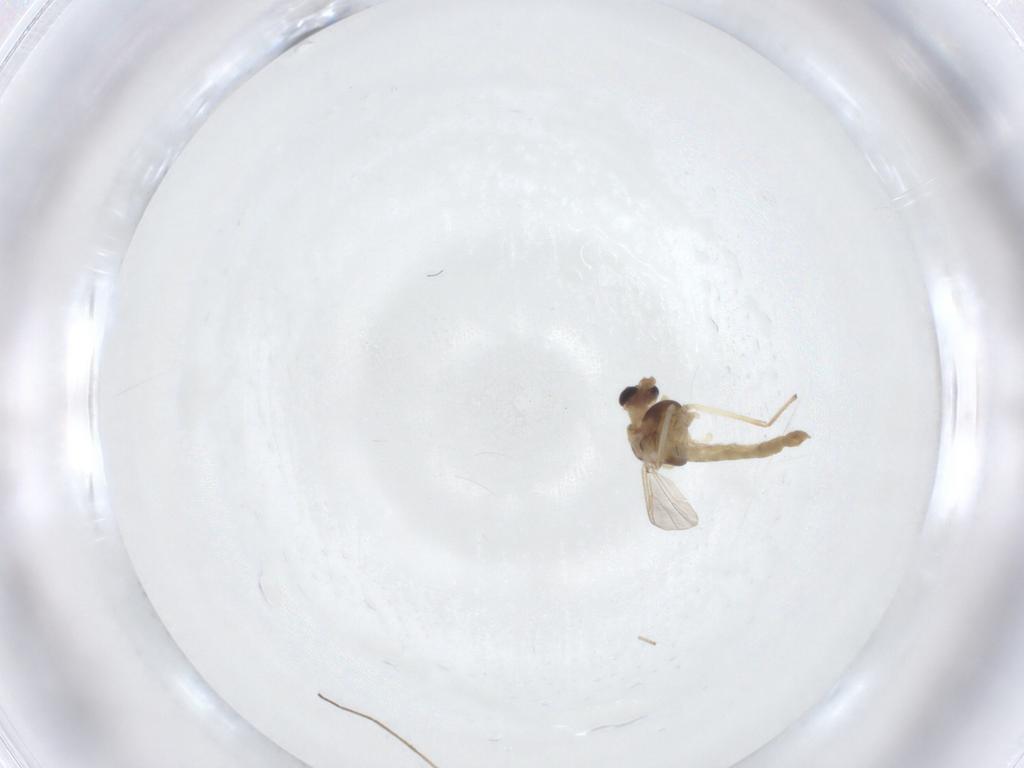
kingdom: Animalia
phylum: Arthropoda
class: Insecta
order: Diptera
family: Chironomidae
